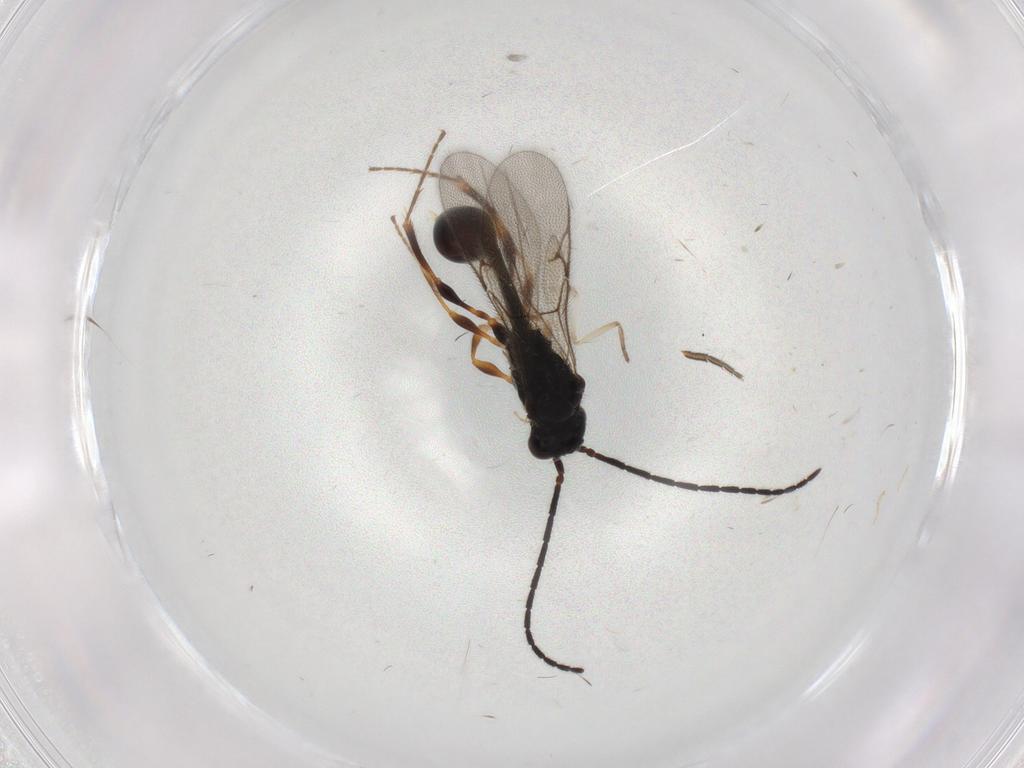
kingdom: Animalia
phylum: Arthropoda
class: Insecta
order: Hymenoptera
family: Diapriidae
